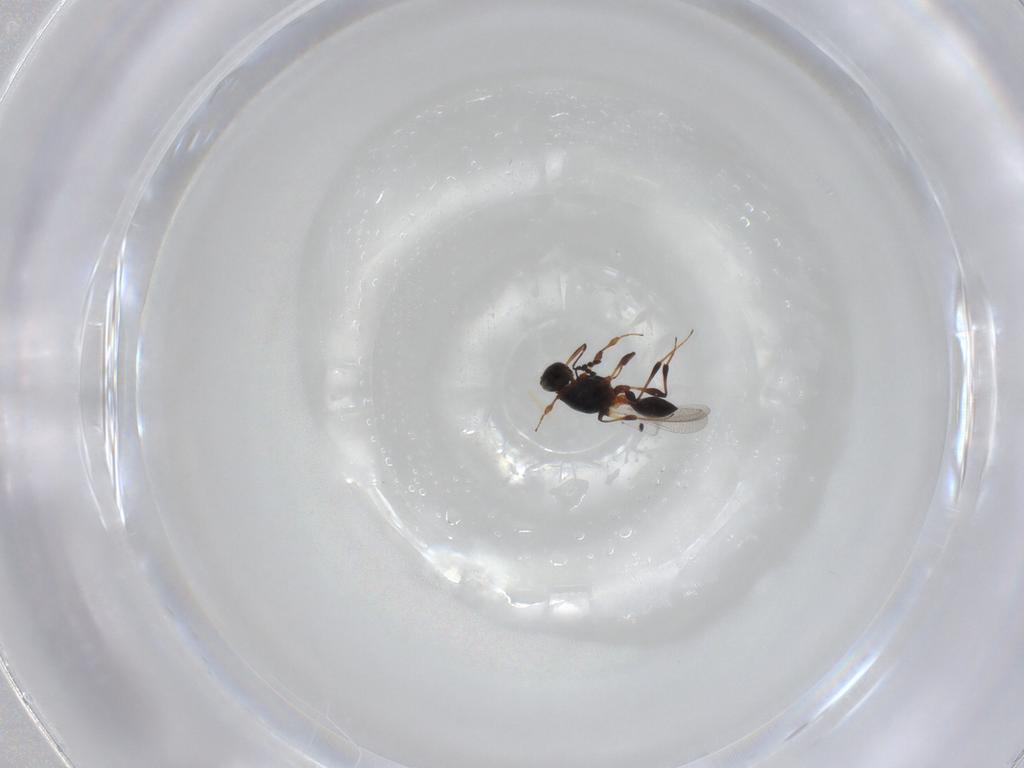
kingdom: Animalia
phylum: Arthropoda
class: Insecta
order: Hymenoptera
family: Platygastridae
